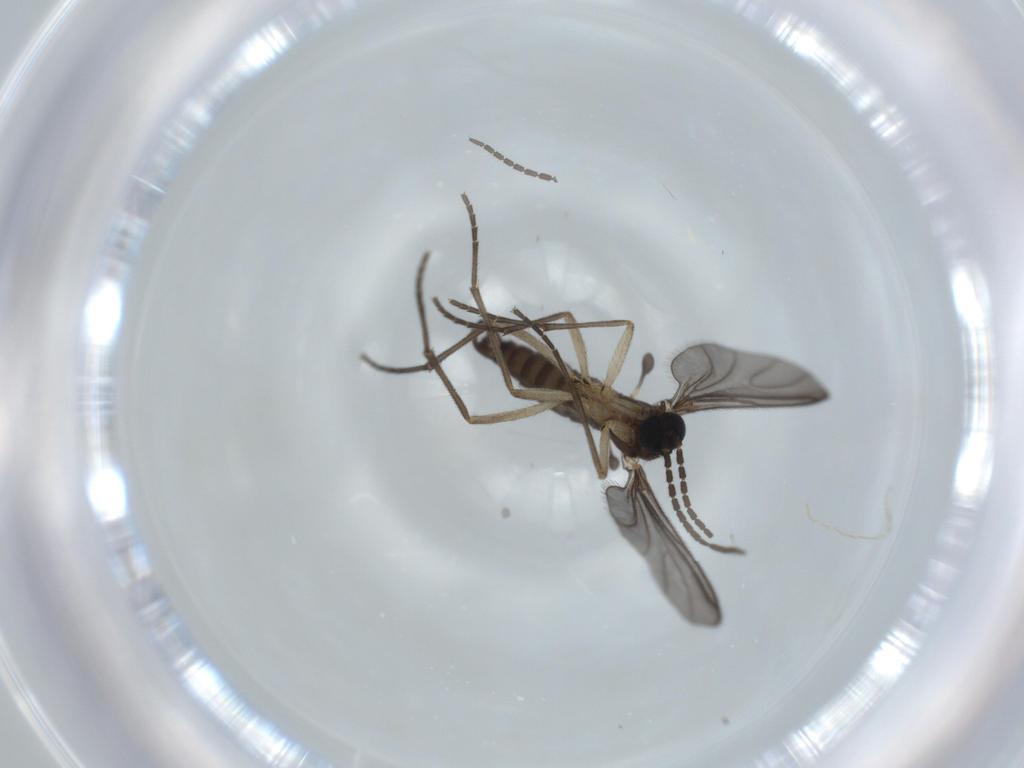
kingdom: Animalia
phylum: Arthropoda
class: Insecta
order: Diptera
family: Sciaridae
